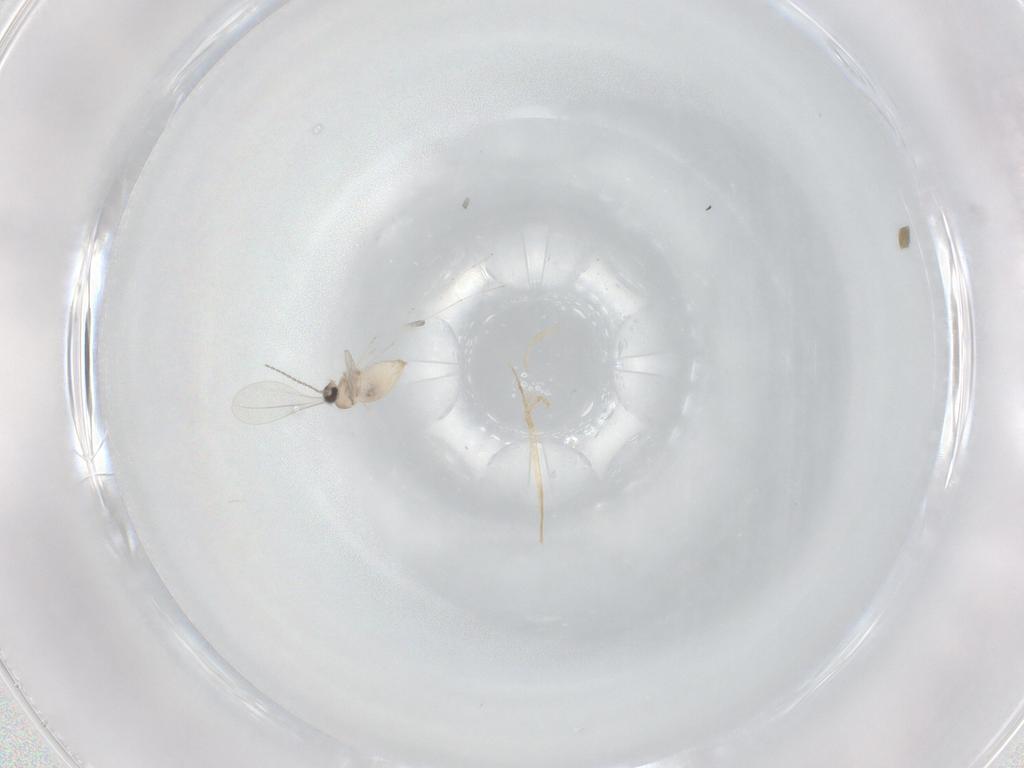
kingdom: Animalia
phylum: Arthropoda
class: Insecta
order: Diptera
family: Cecidomyiidae
